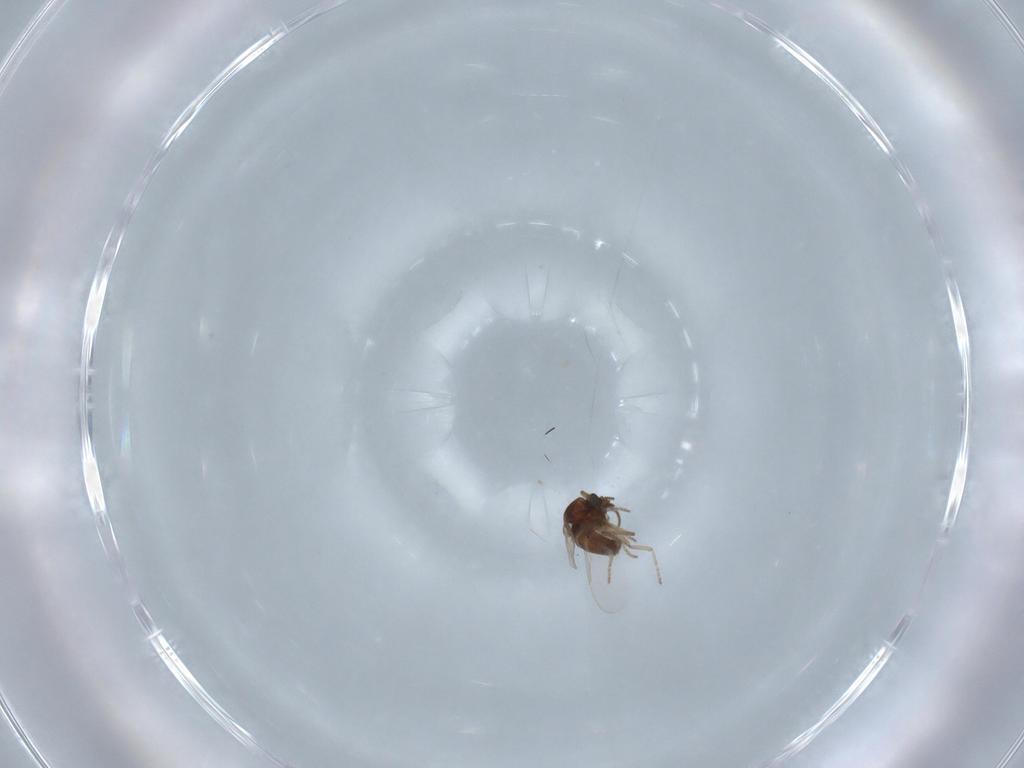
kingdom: Animalia
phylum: Arthropoda
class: Insecta
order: Diptera
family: Ceratopogonidae
